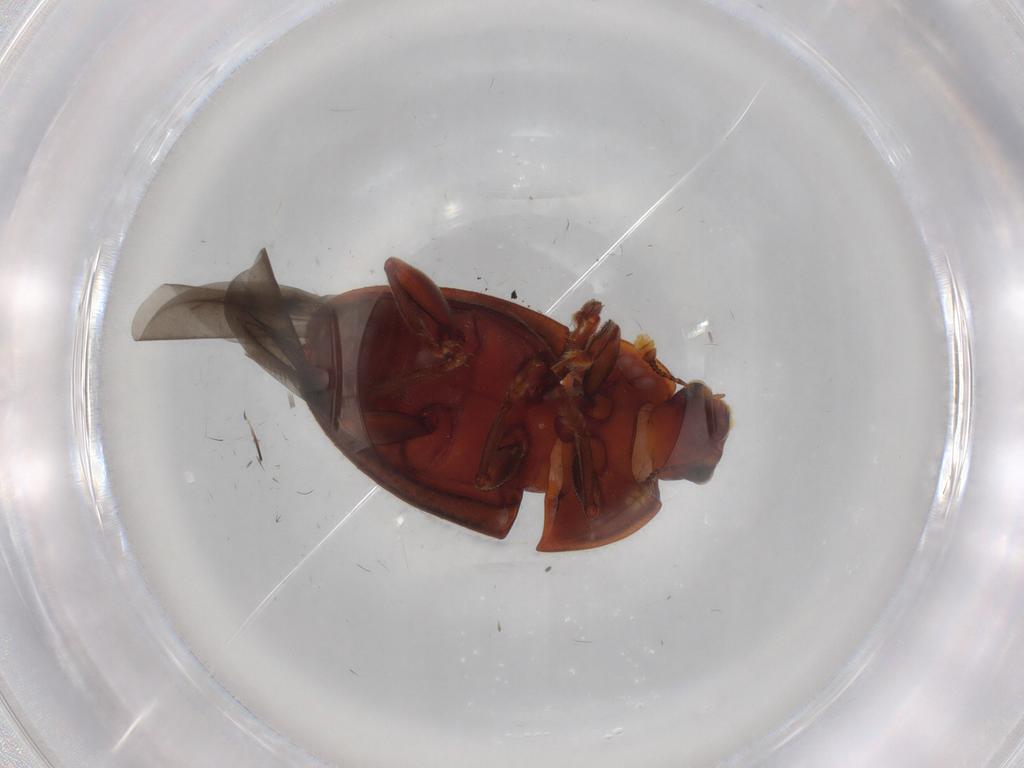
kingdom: Animalia
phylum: Arthropoda
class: Insecta
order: Coleoptera
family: Nitidulidae
